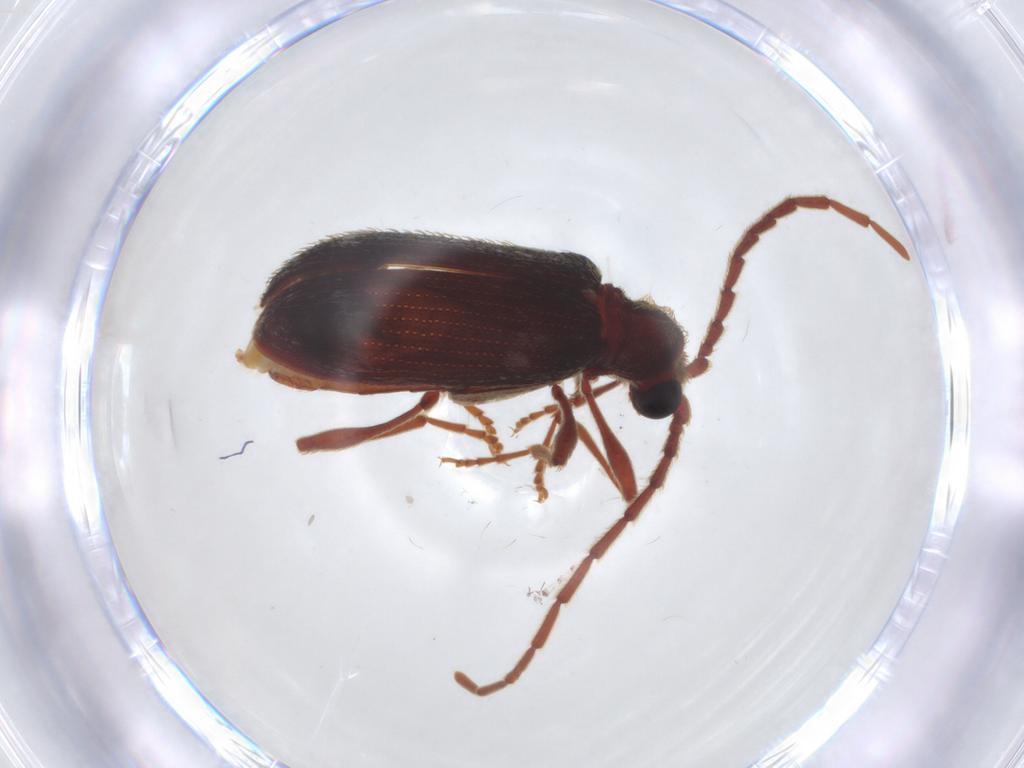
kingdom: Animalia
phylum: Arthropoda
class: Insecta
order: Coleoptera
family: Ptinidae
